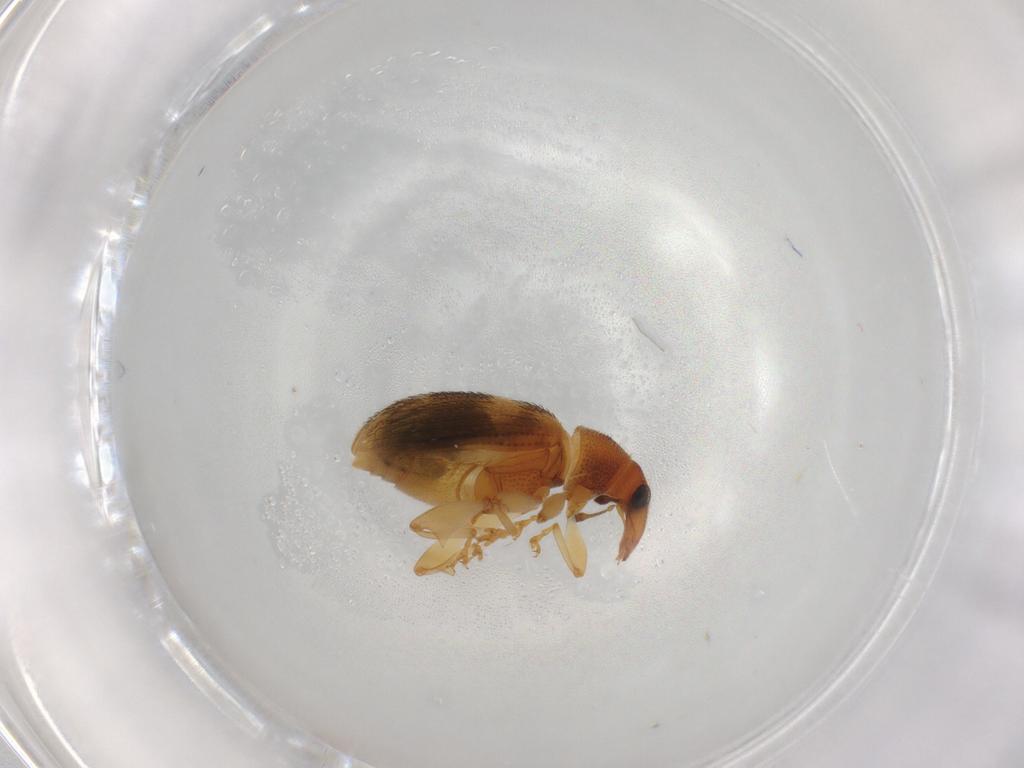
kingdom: Animalia
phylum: Arthropoda
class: Insecta
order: Coleoptera
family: Curculionidae
